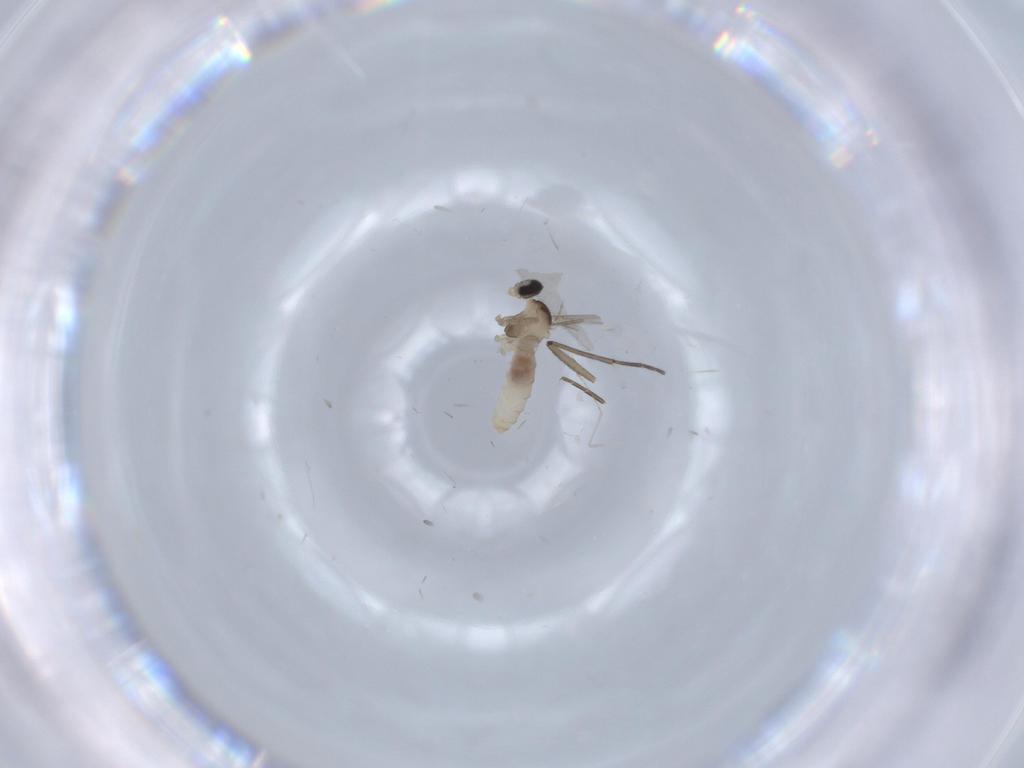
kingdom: Animalia
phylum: Arthropoda
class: Insecta
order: Diptera
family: Cecidomyiidae
